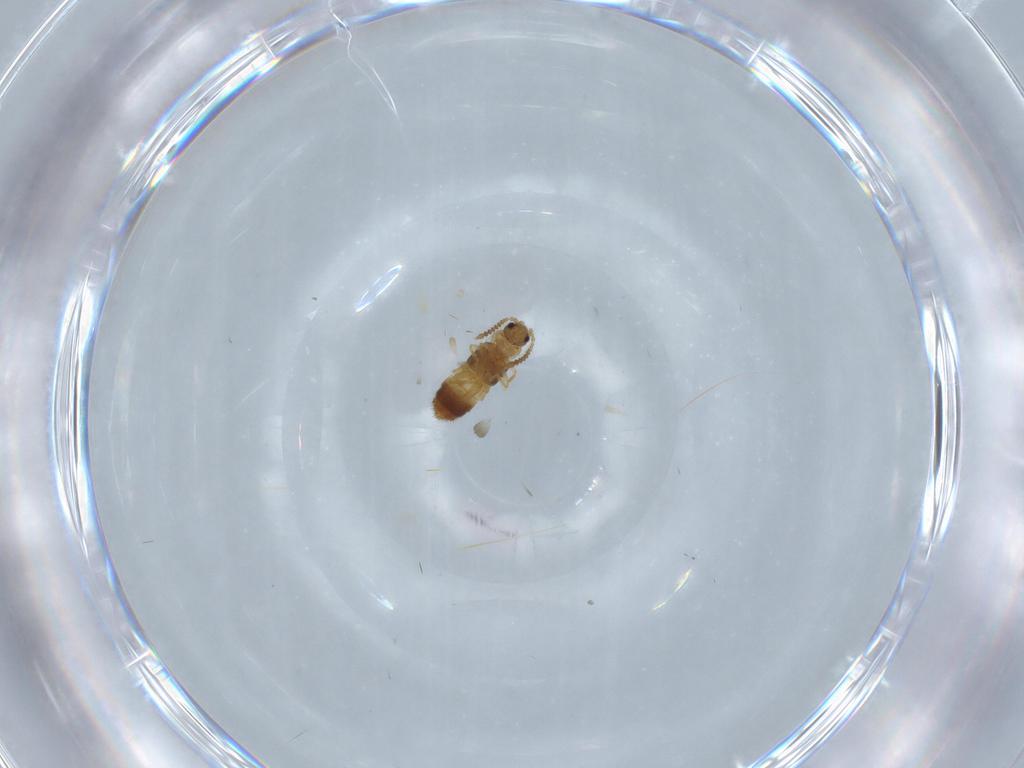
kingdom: Animalia
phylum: Arthropoda
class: Insecta
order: Coleoptera
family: Staphylinidae
